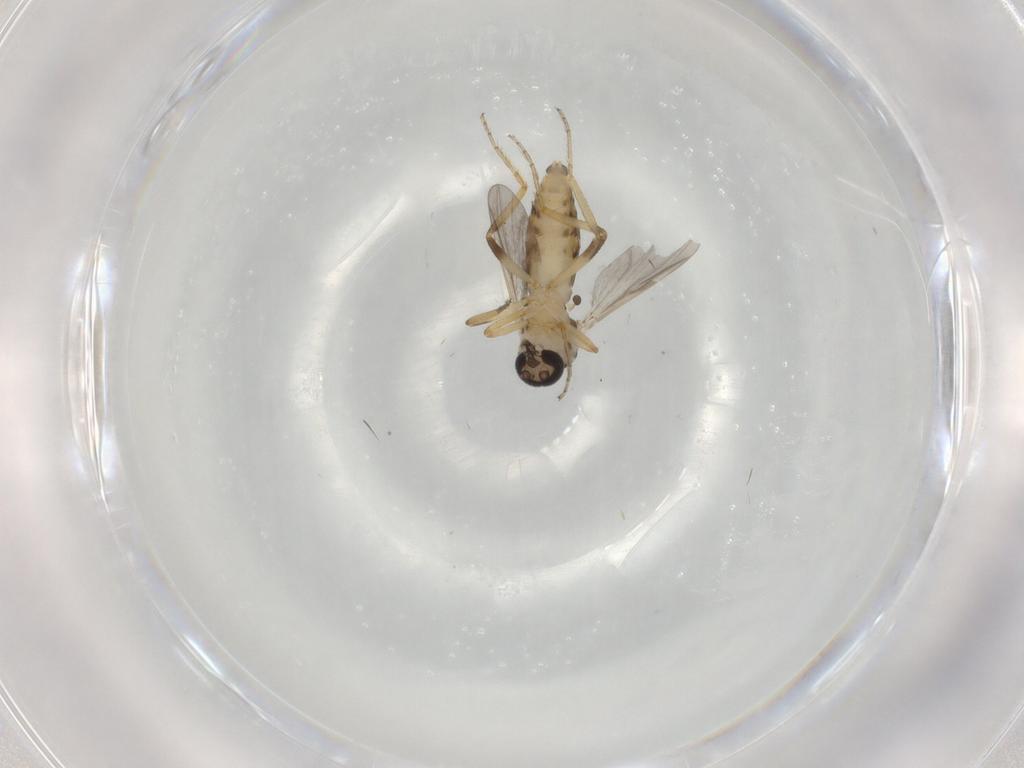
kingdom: Animalia
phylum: Arthropoda
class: Insecta
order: Diptera
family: Ceratopogonidae
